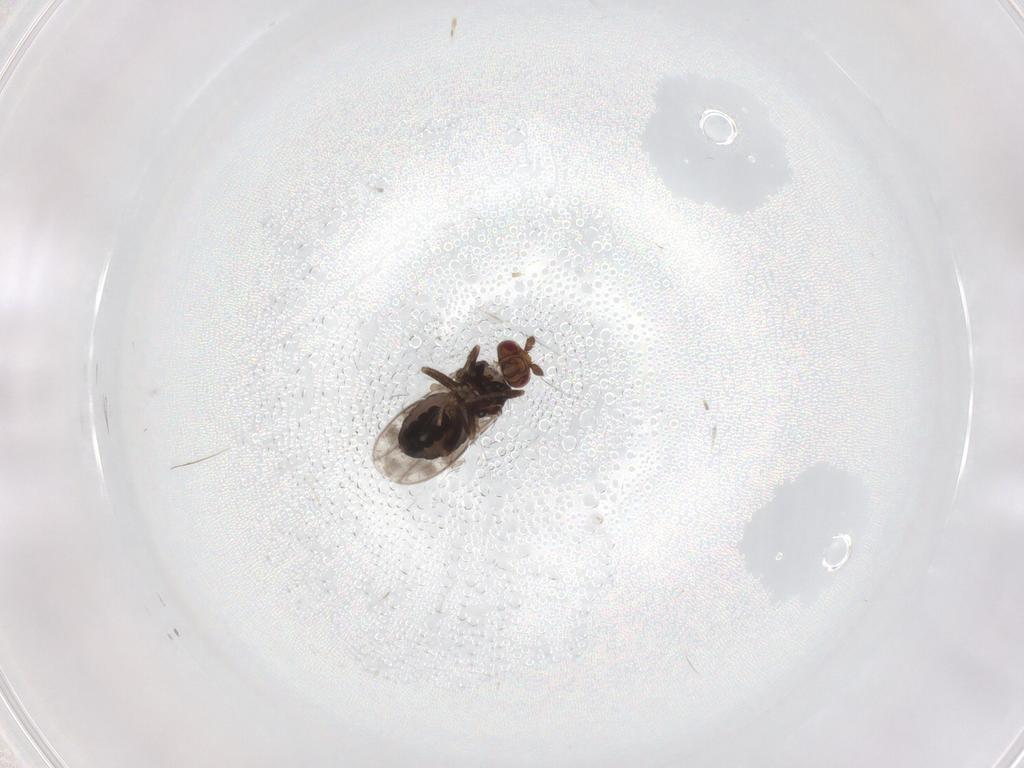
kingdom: Animalia
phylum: Arthropoda
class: Insecta
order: Diptera
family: Sphaeroceridae
